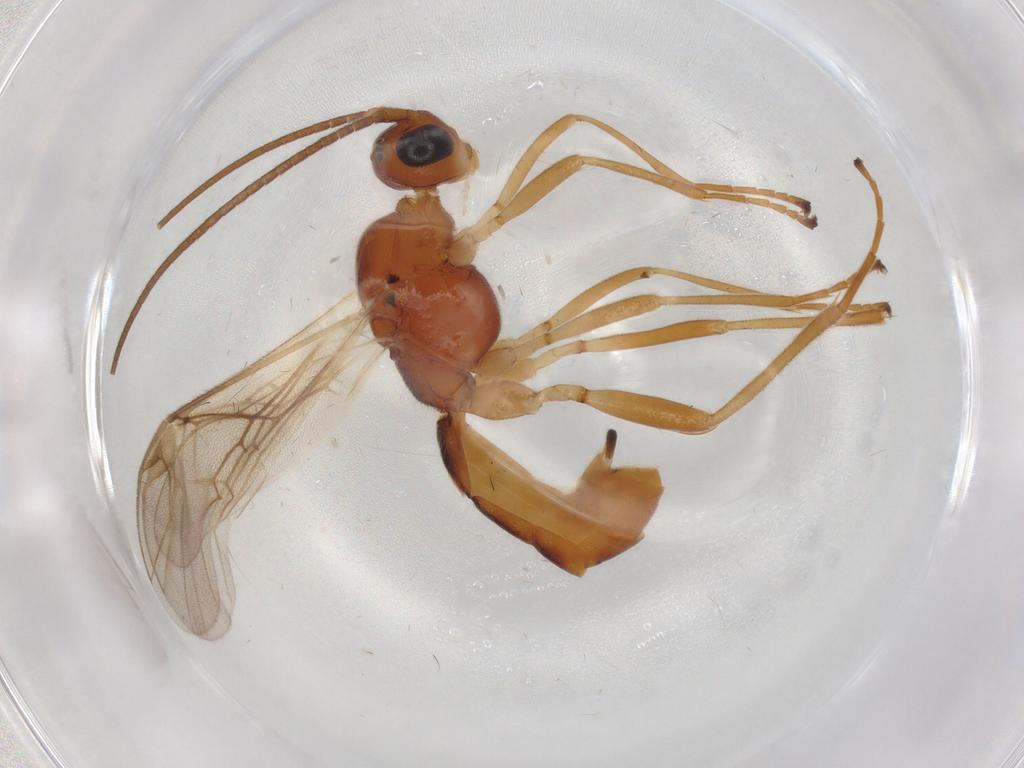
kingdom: Animalia
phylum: Arthropoda
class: Insecta
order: Hymenoptera
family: Braconidae
